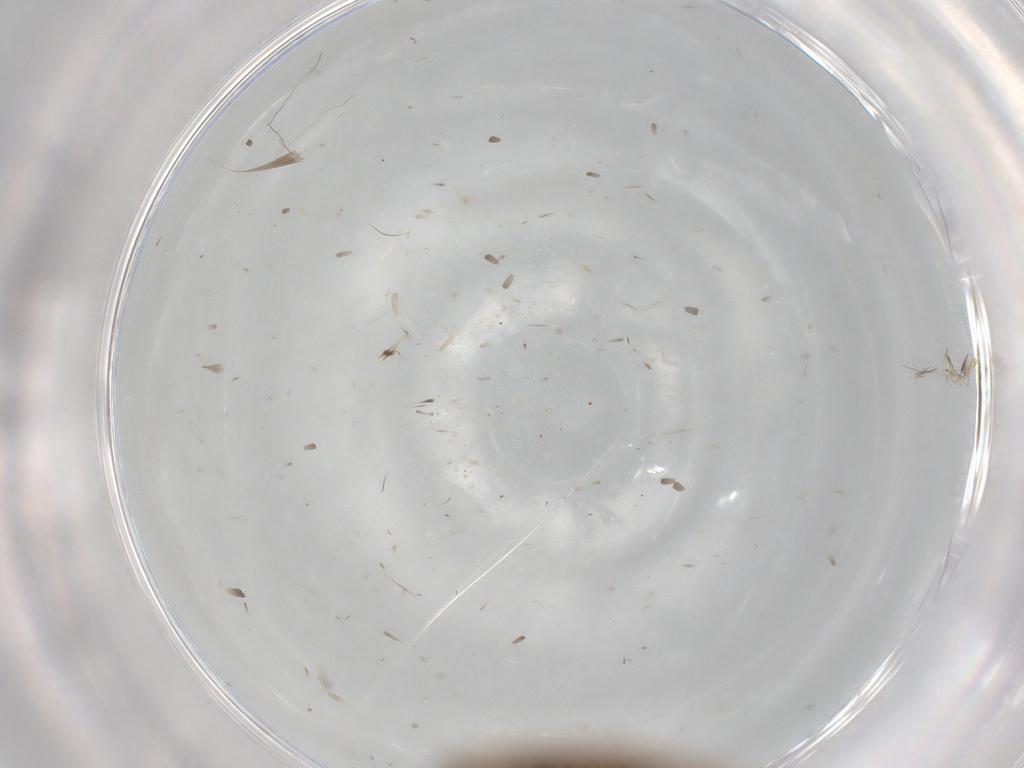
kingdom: Animalia
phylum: Arthropoda
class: Insecta
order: Lepidoptera
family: Bucculatricidae
